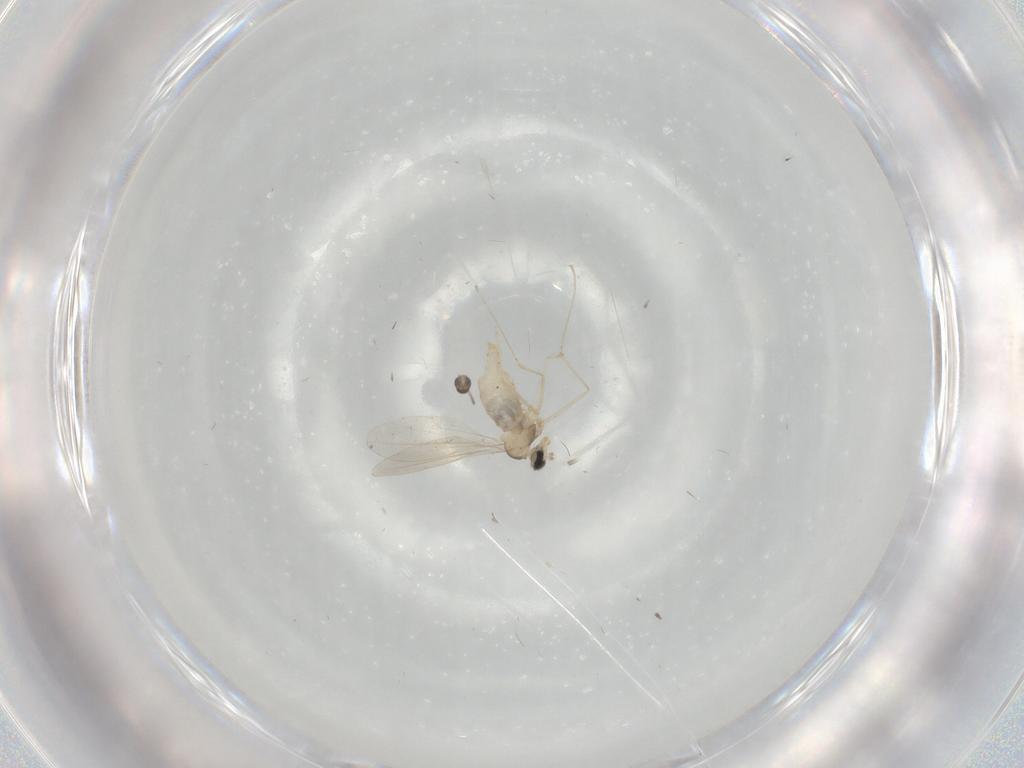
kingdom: Animalia
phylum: Arthropoda
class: Insecta
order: Diptera
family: Cecidomyiidae
